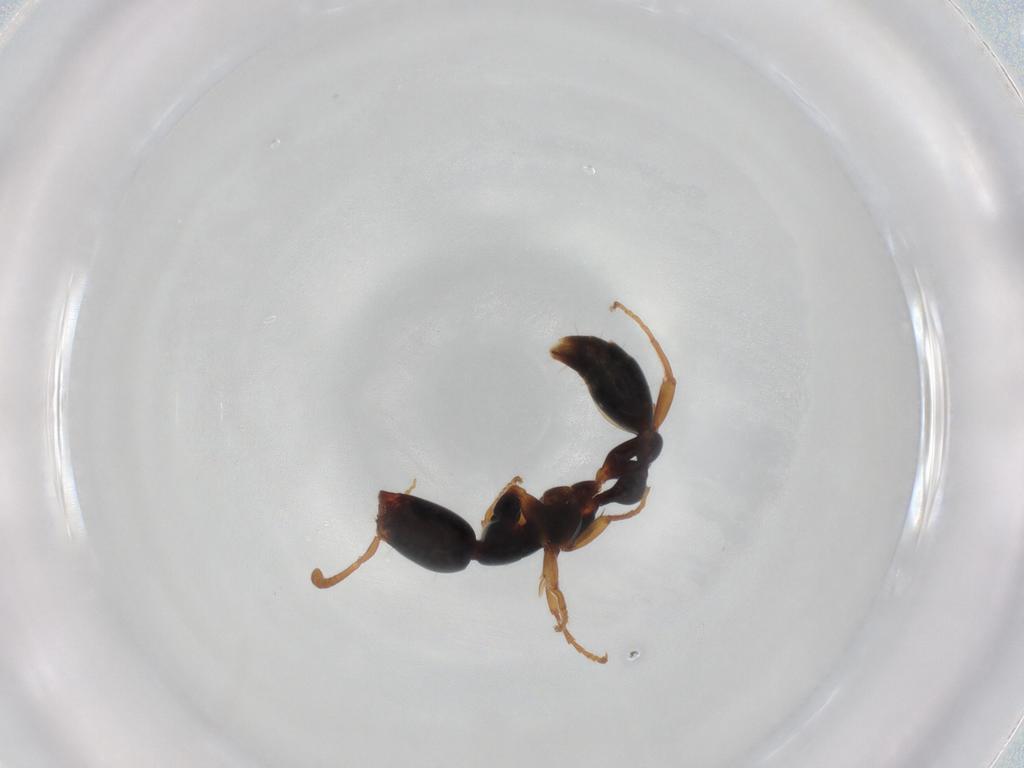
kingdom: Animalia
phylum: Arthropoda
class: Insecta
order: Hymenoptera
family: Formicidae
